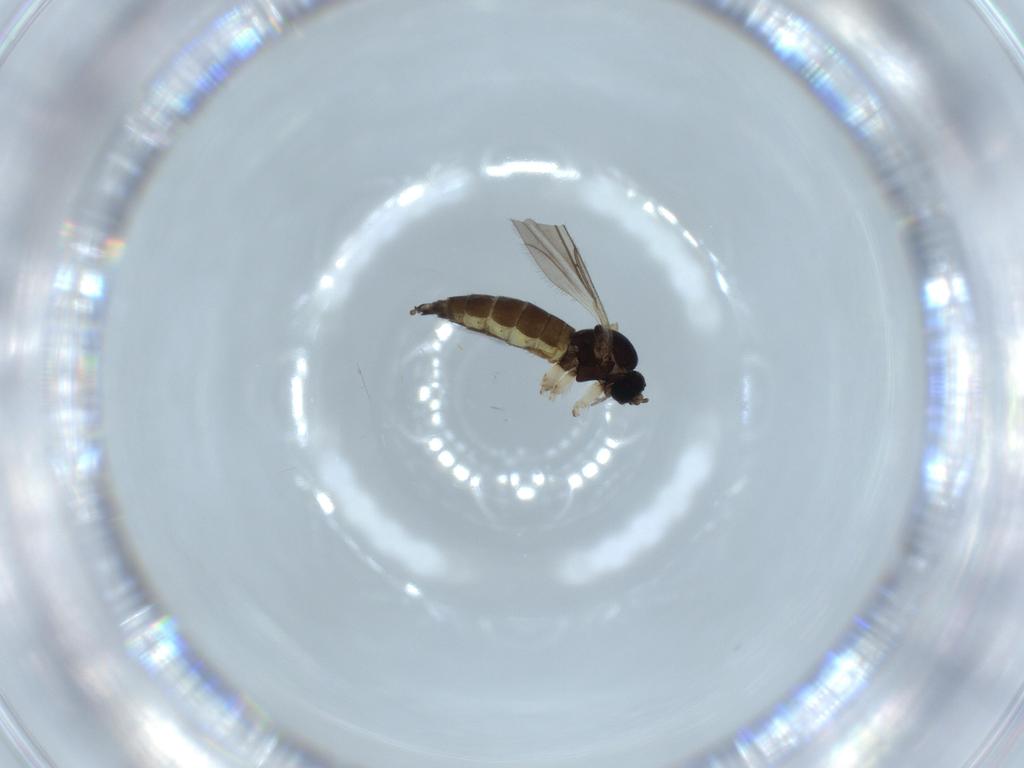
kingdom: Animalia
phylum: Arthropoda
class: Insecta
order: Diptera
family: Sciaridae
